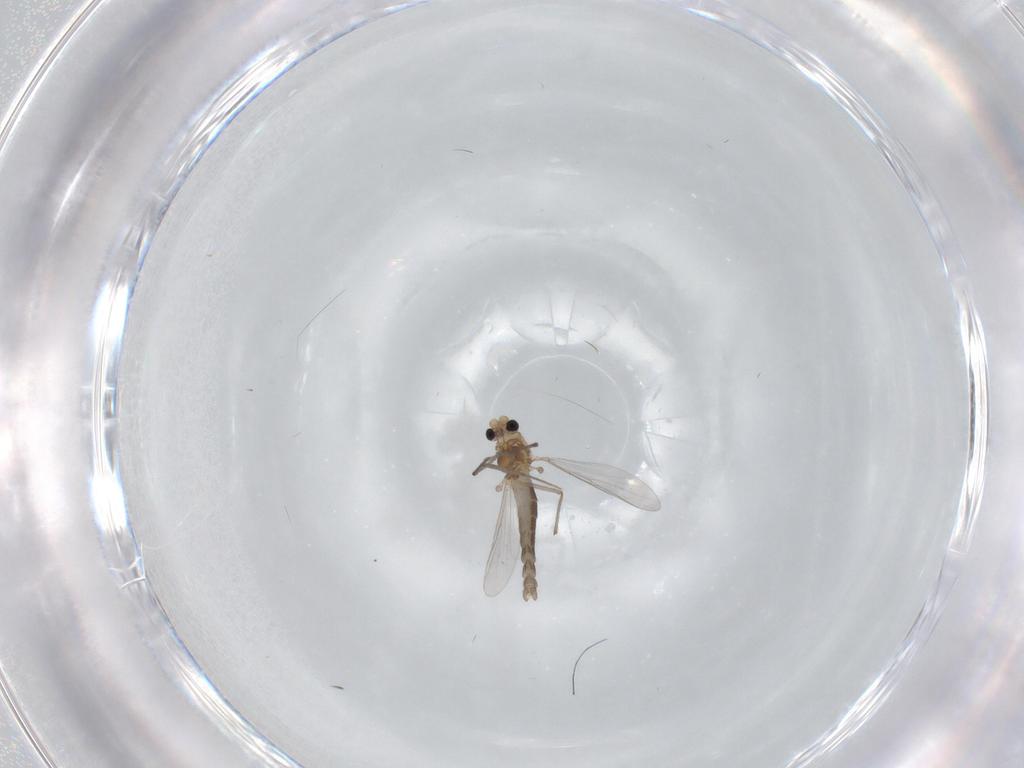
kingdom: Animalia
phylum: Arthropoda
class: Insecta
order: Diptera
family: Chironomidae
